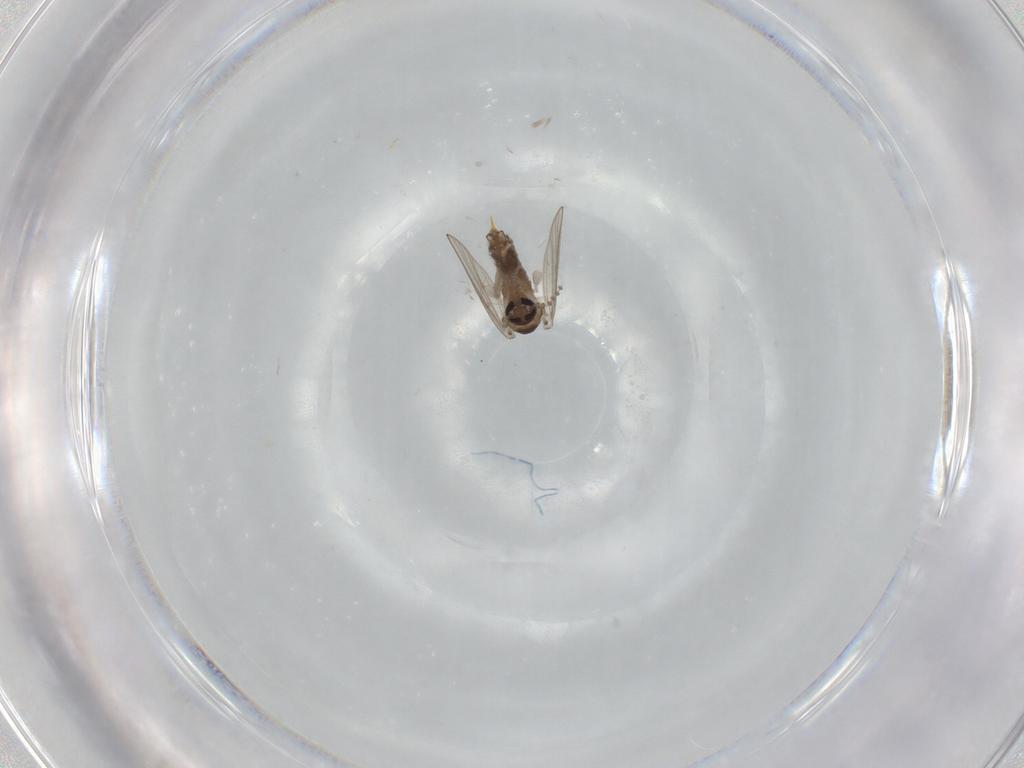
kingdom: Animalia
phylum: Arthropoda
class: Insecta
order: Diptera
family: Psychodidae
